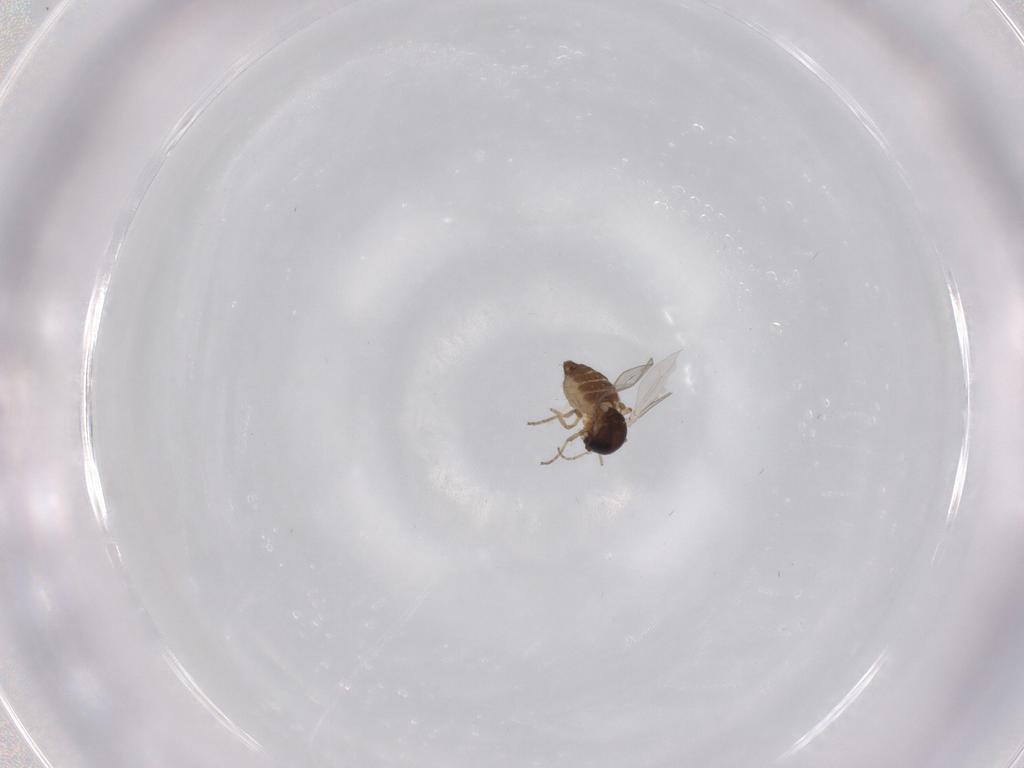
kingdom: Animalia
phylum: Arthropoda
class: Insecta
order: Diptera
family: Ceratopogonidae
